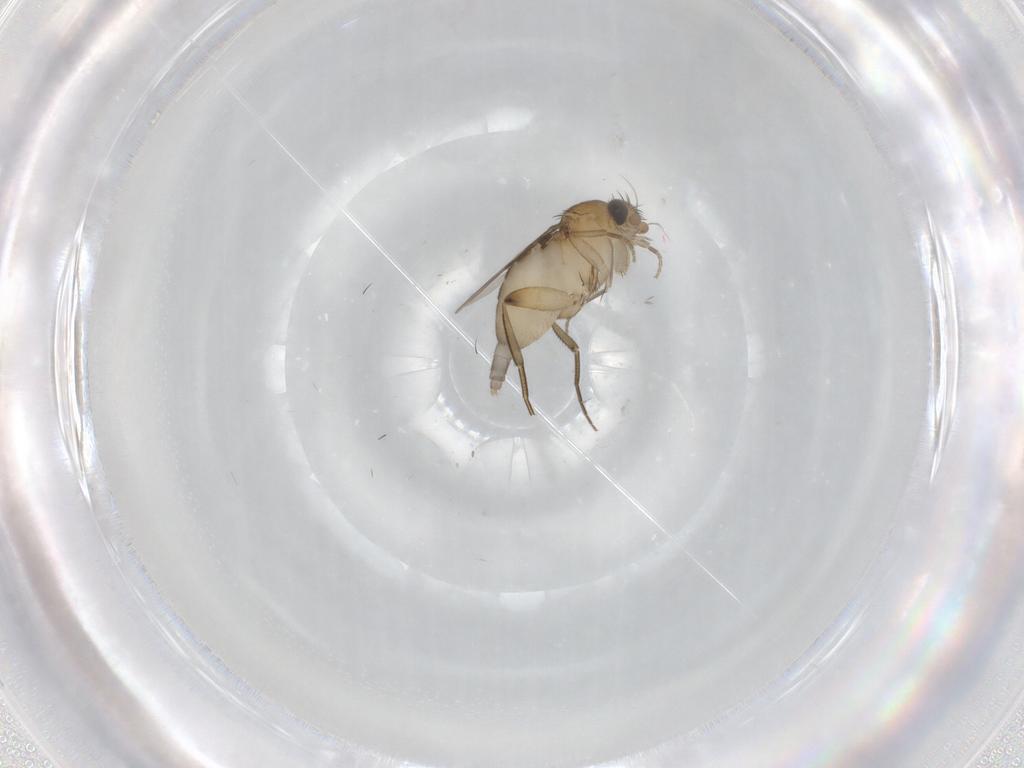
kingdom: Animalia
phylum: Arthropoda
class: Insecta
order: Diptera
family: Phoridae
